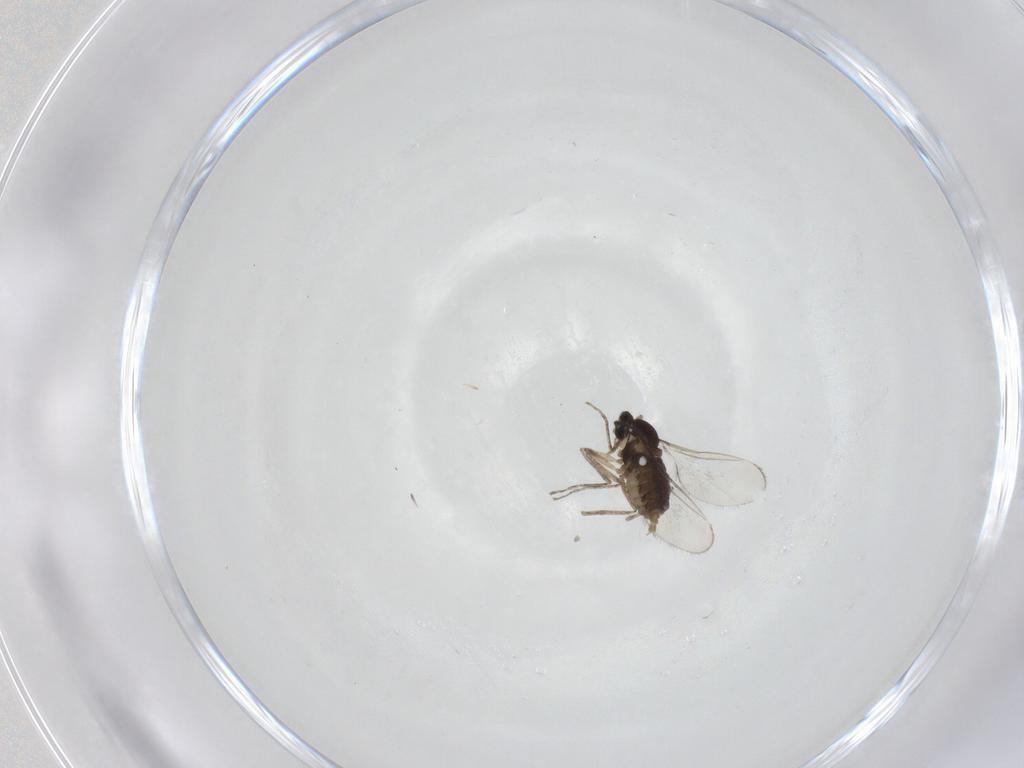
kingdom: Animalia
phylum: Arthropoda
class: Insecta
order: Diptera
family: Cecidomyiidae
